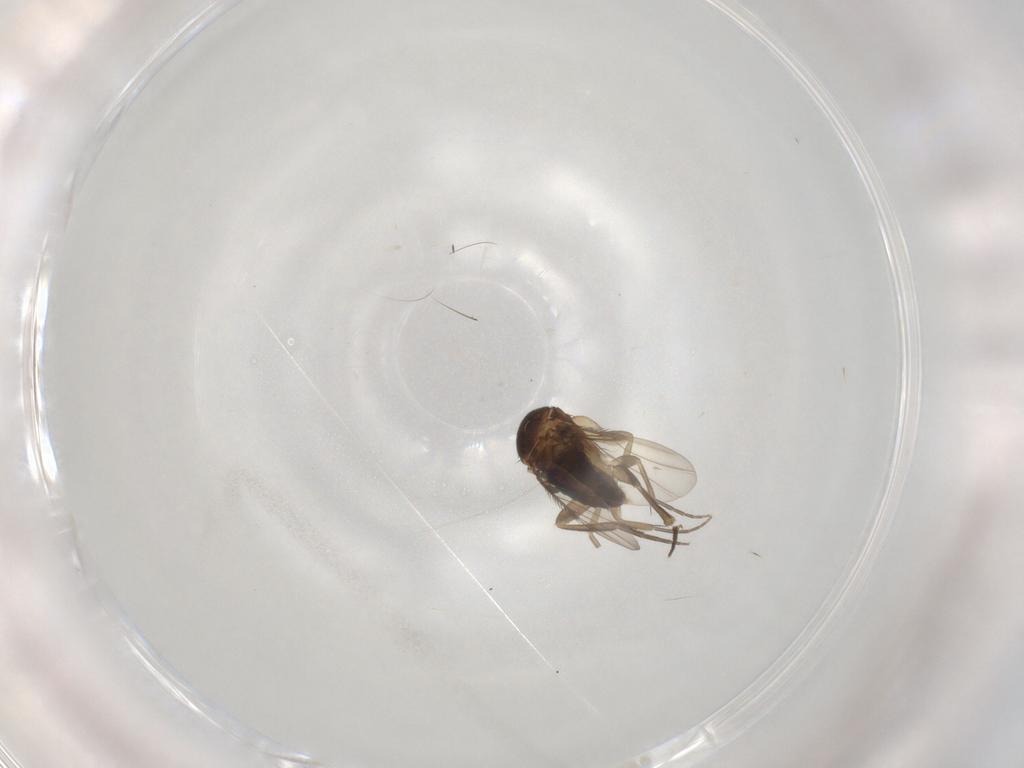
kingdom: Animalia
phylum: Arthropoda
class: Insecta
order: Diptera
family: Phoridae
